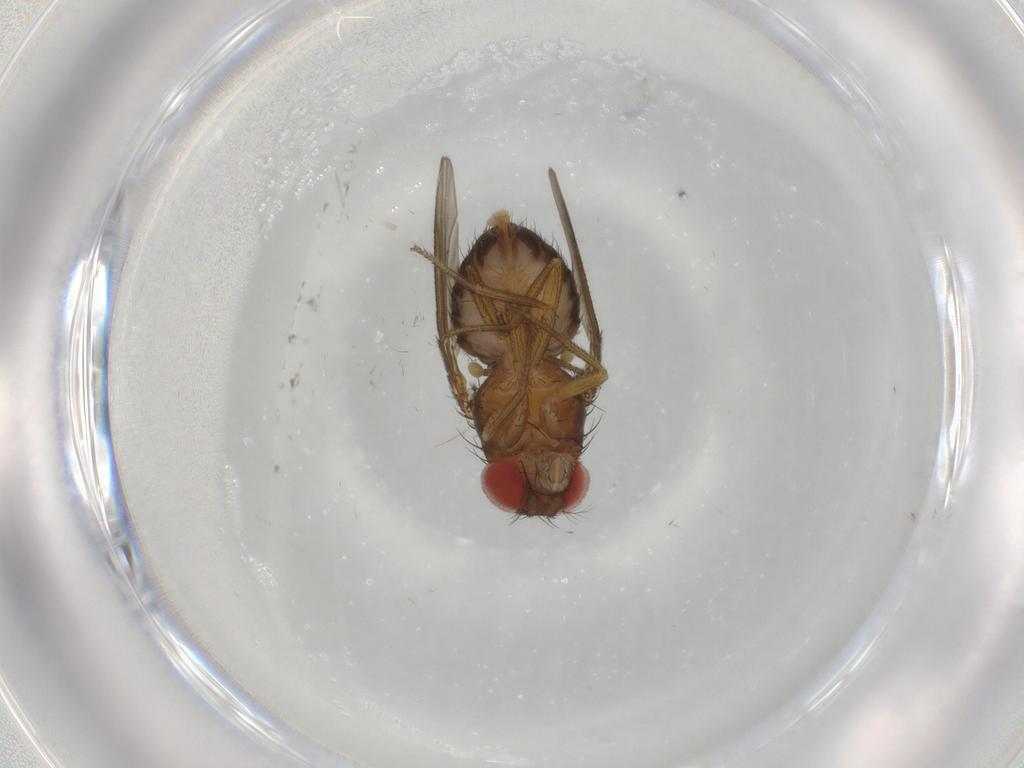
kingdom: Animalia
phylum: Arthropoda
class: Insecta
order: Diptera
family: Drosophilidae
